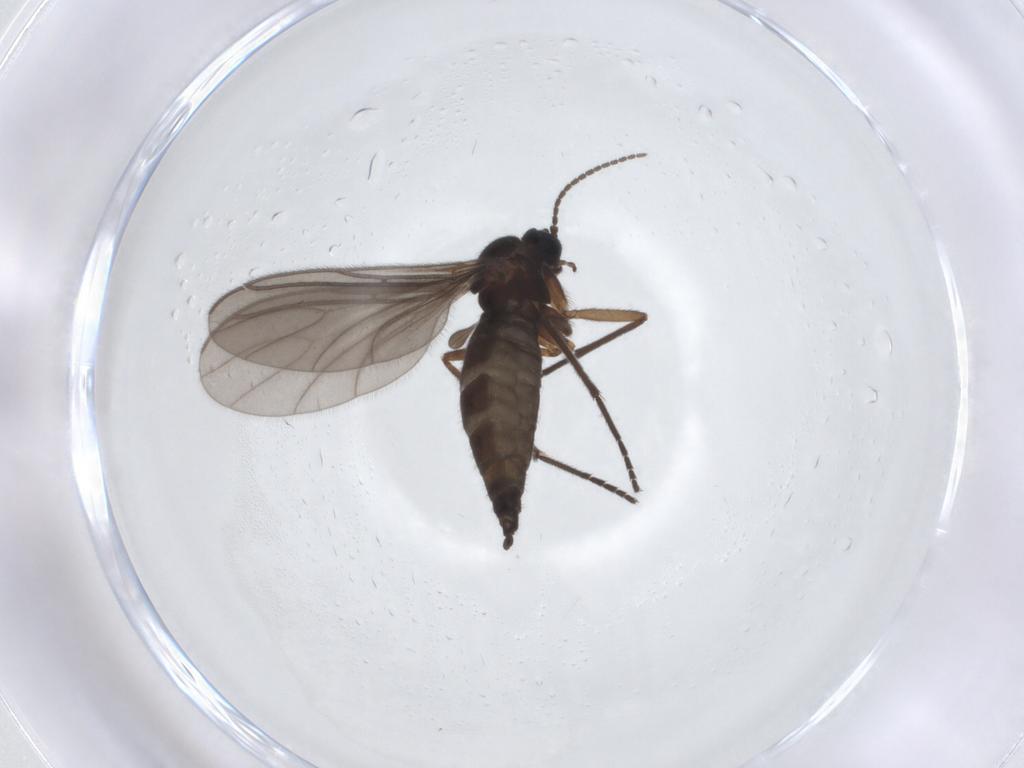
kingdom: Animalia
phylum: Arthropoda
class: Insecta
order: Diptera
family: Sciaridae
